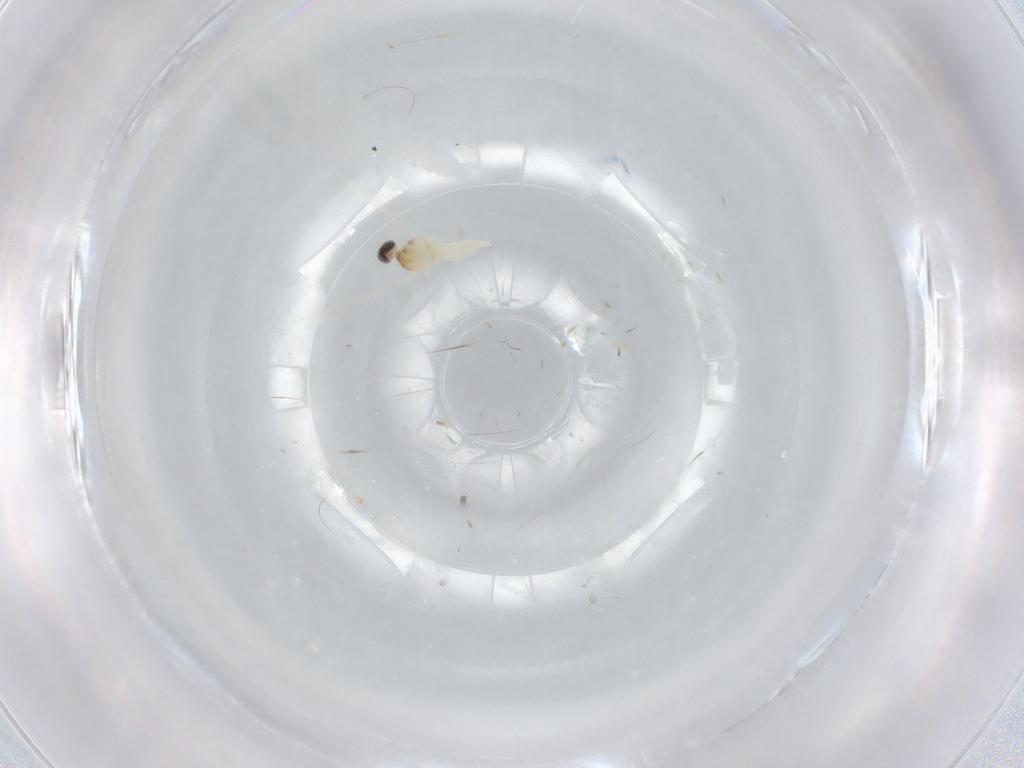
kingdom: Animalia
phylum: Arthropoda
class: Insecta
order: Diptera
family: Cecidomyiidae
